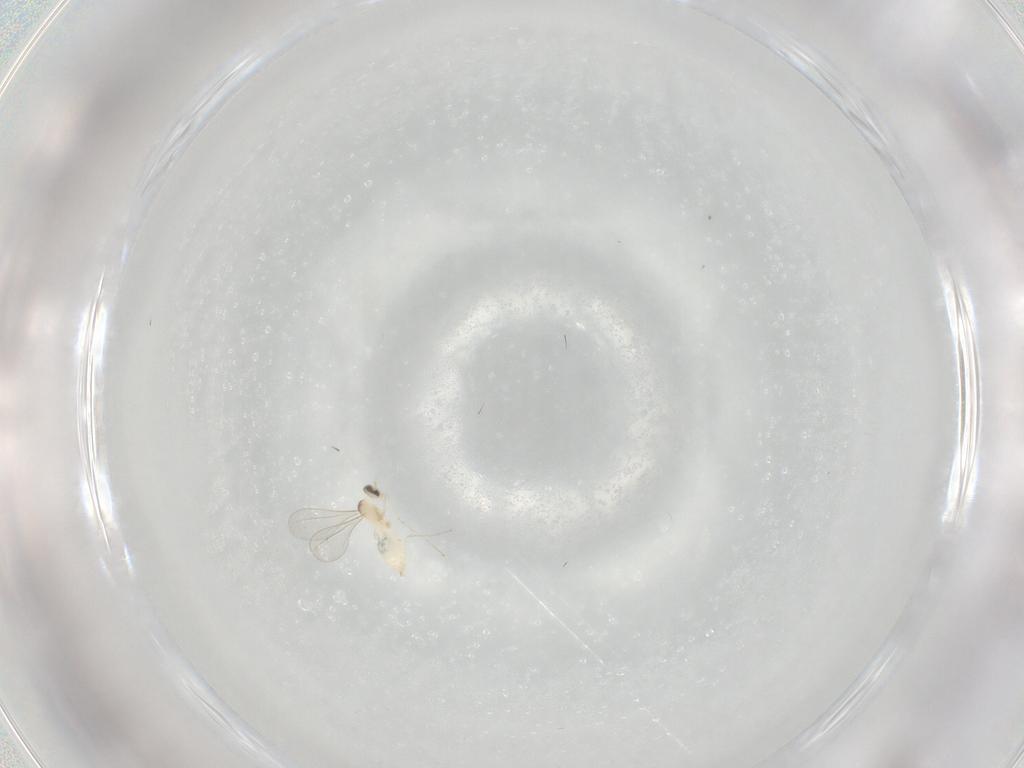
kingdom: Animalia
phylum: Arthropoda
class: Insecta
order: Diptera
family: Cecidomyiidae
